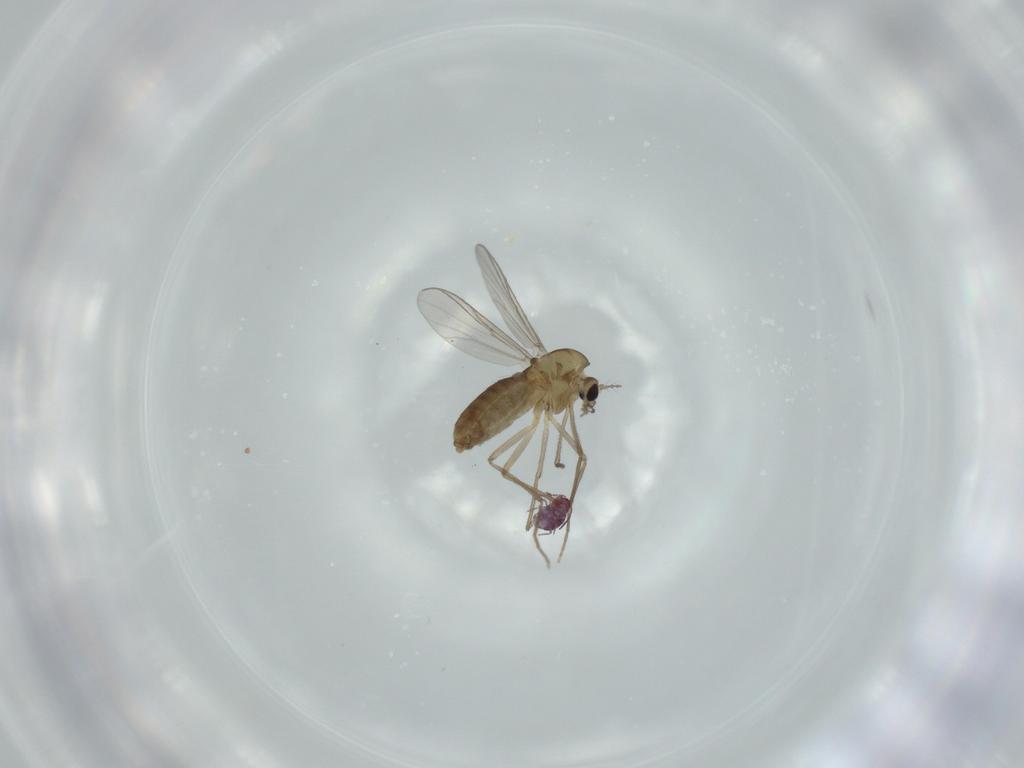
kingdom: Animalia
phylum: Arthropoda
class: Insecta
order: Diptera
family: Chironomidae
